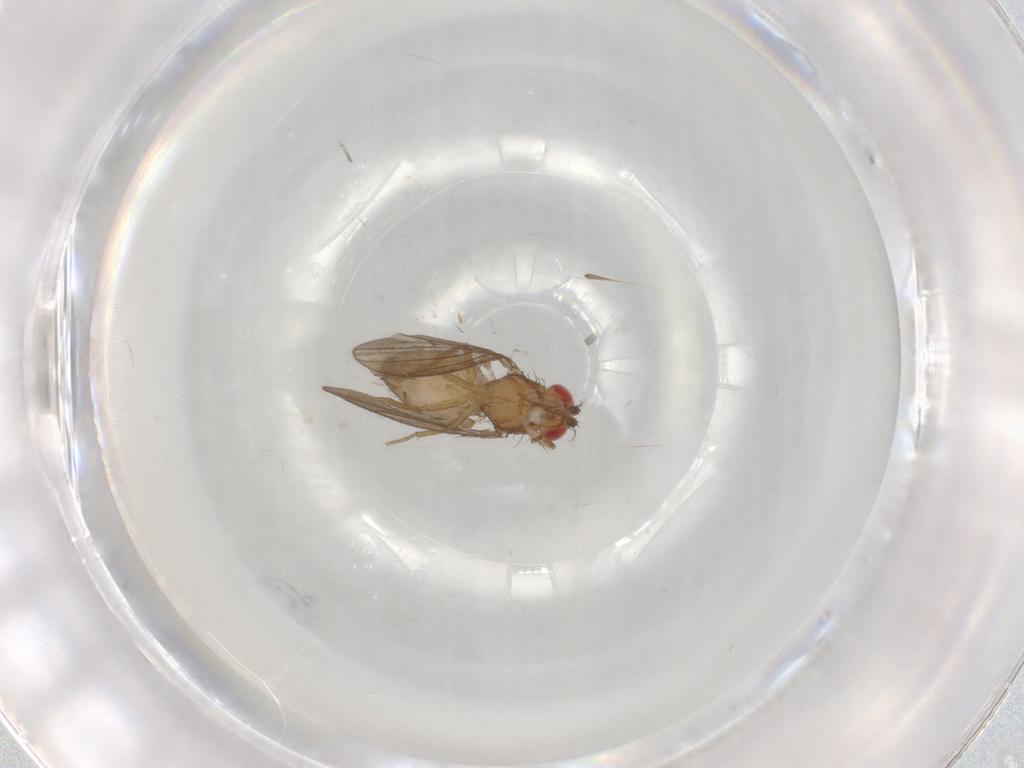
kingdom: Animalia
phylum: Arthropoda
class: Insecta
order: Diptera
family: Drosophilidae
